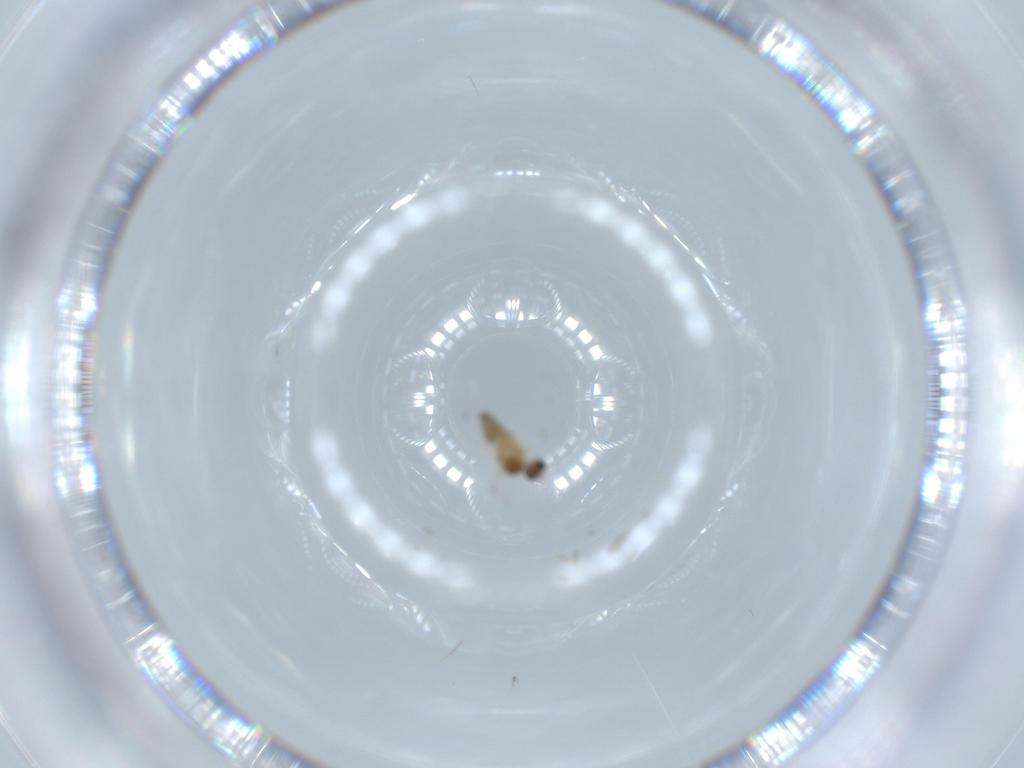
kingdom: Animalia
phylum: Arthropoda
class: Insecta
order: Diptera
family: Cecidomyiidae
